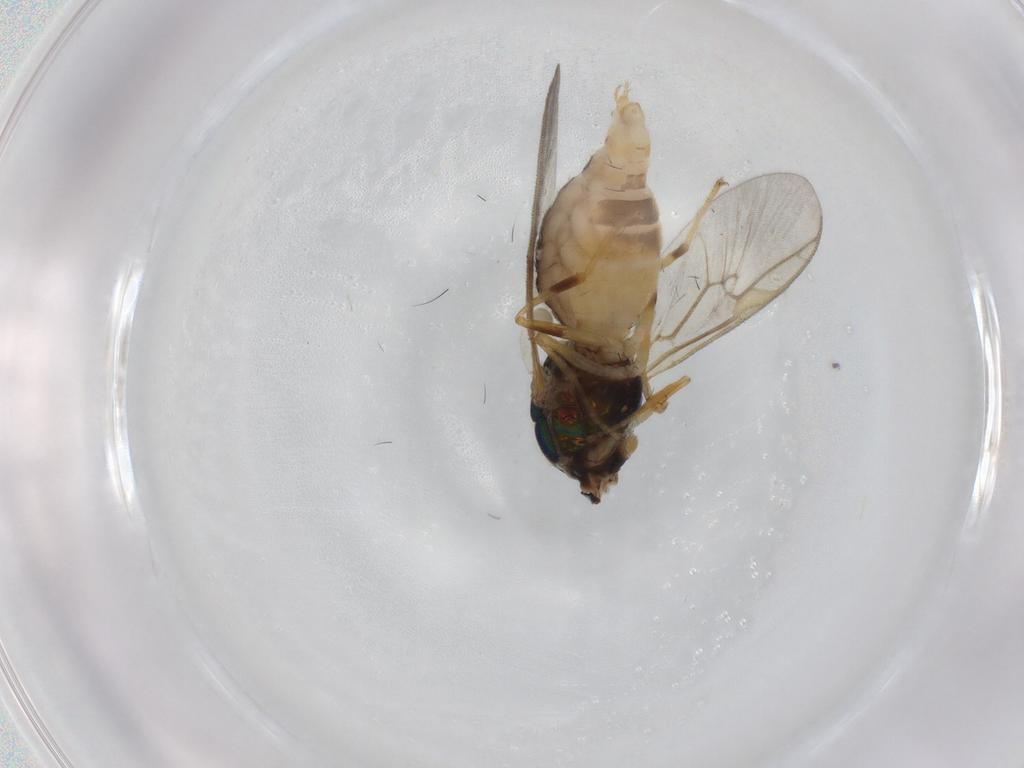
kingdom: Animalia
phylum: Arthropoda
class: Insecta
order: Diptera
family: Stratiomyidae
